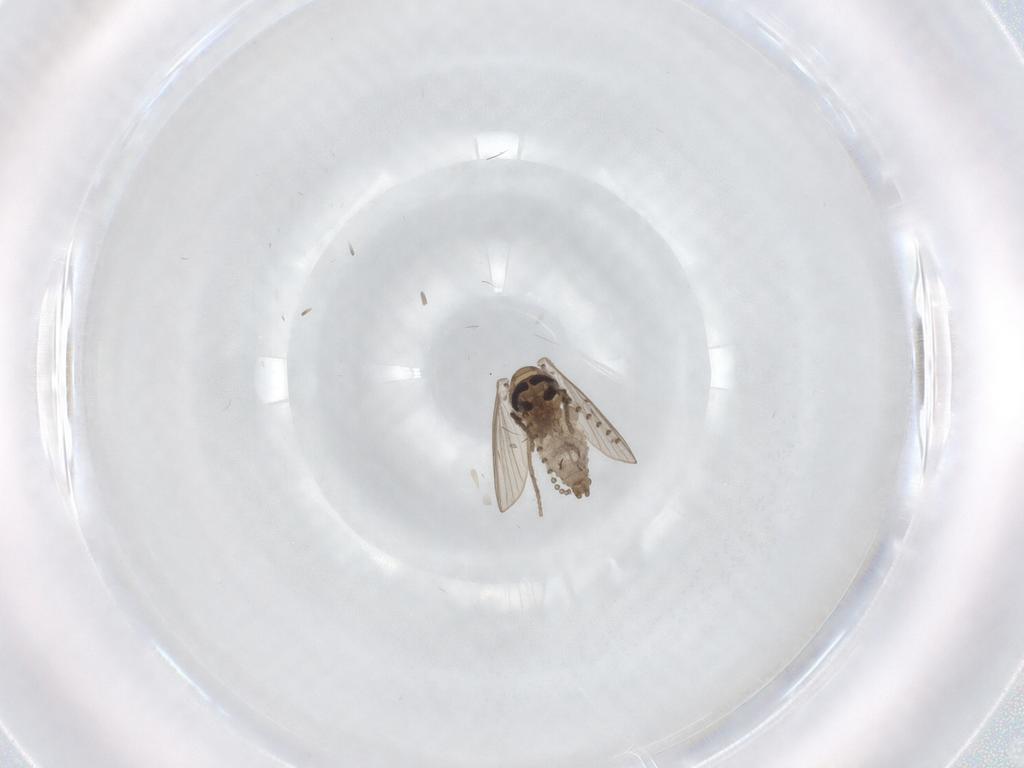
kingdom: Animalia
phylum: Arthropoda
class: Insecta
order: Diptera
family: Psychodidae
